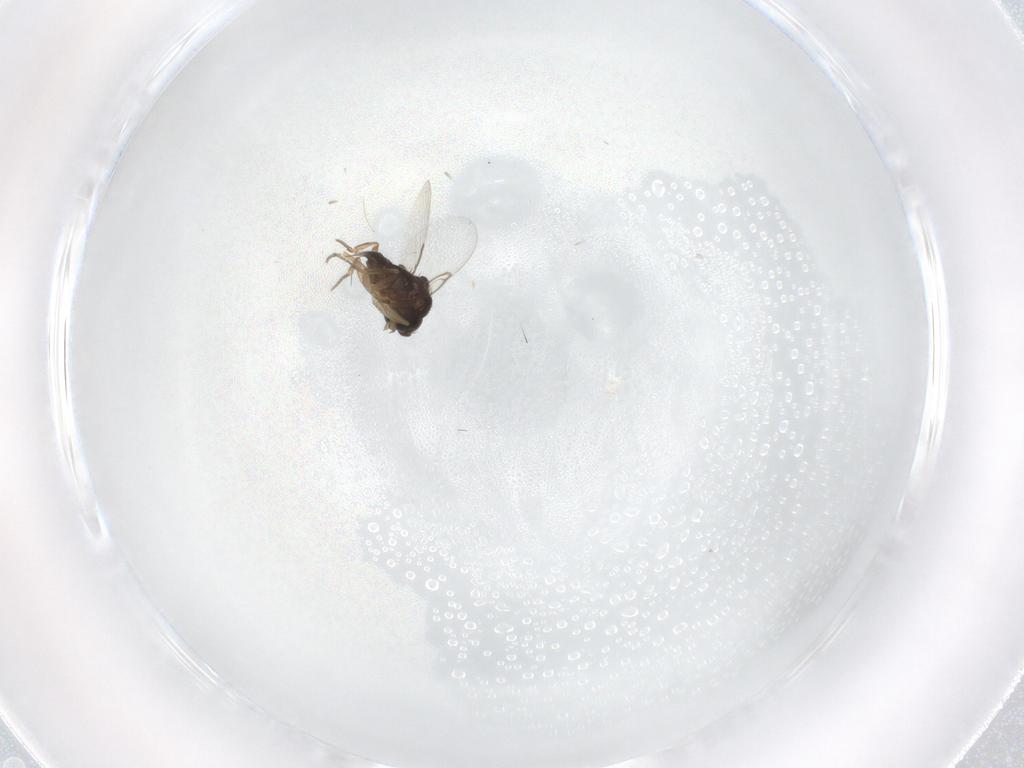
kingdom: Animalia
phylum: Arthropoda
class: Insecta
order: Diptera
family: Phoridae
